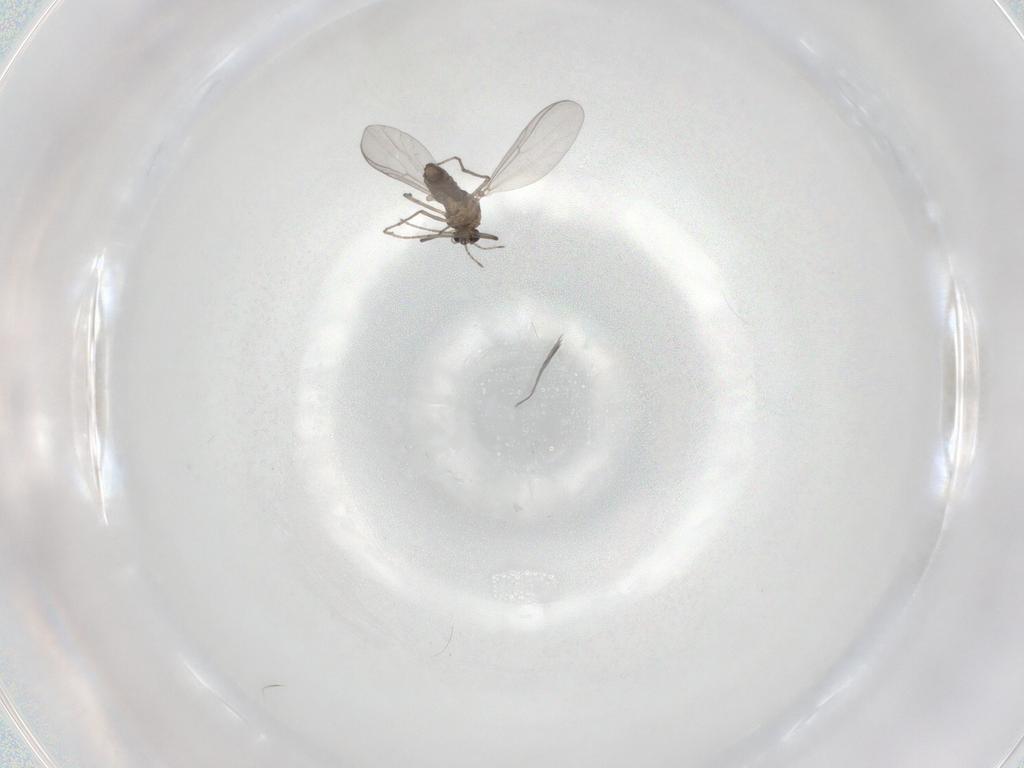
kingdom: Animalia
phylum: Arthropoda
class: Insecta
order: Diptera
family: Chironomidae
